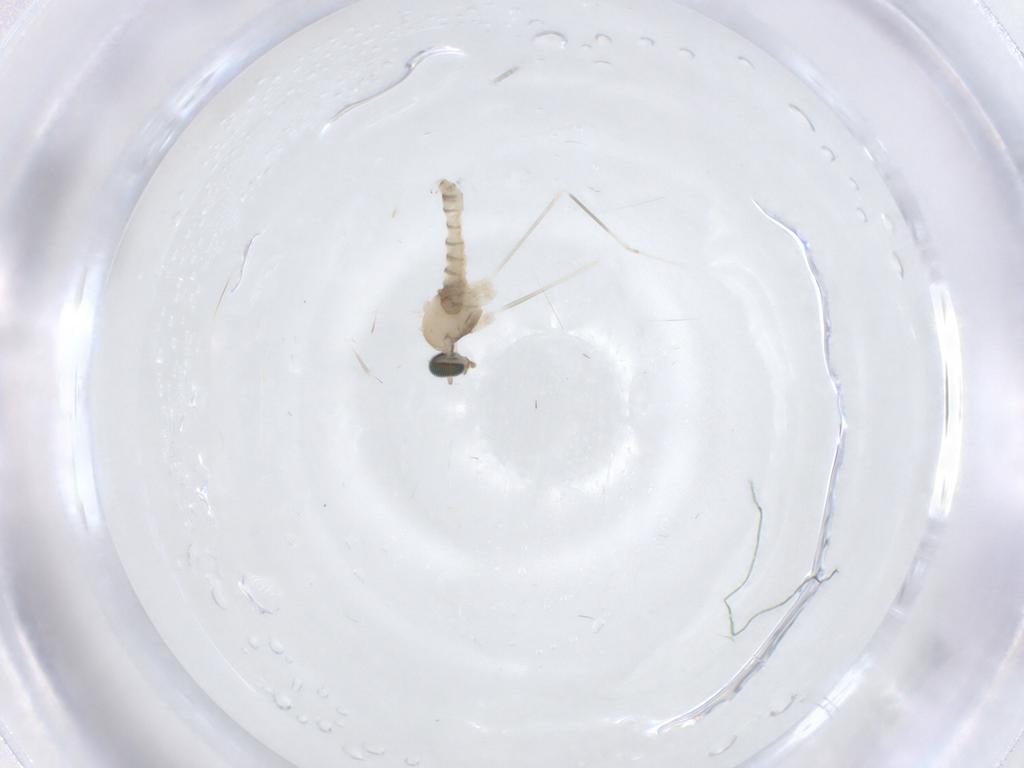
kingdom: Animalia
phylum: Arthropoda
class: Insecta
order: Diptera
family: Cecidomyiidae
